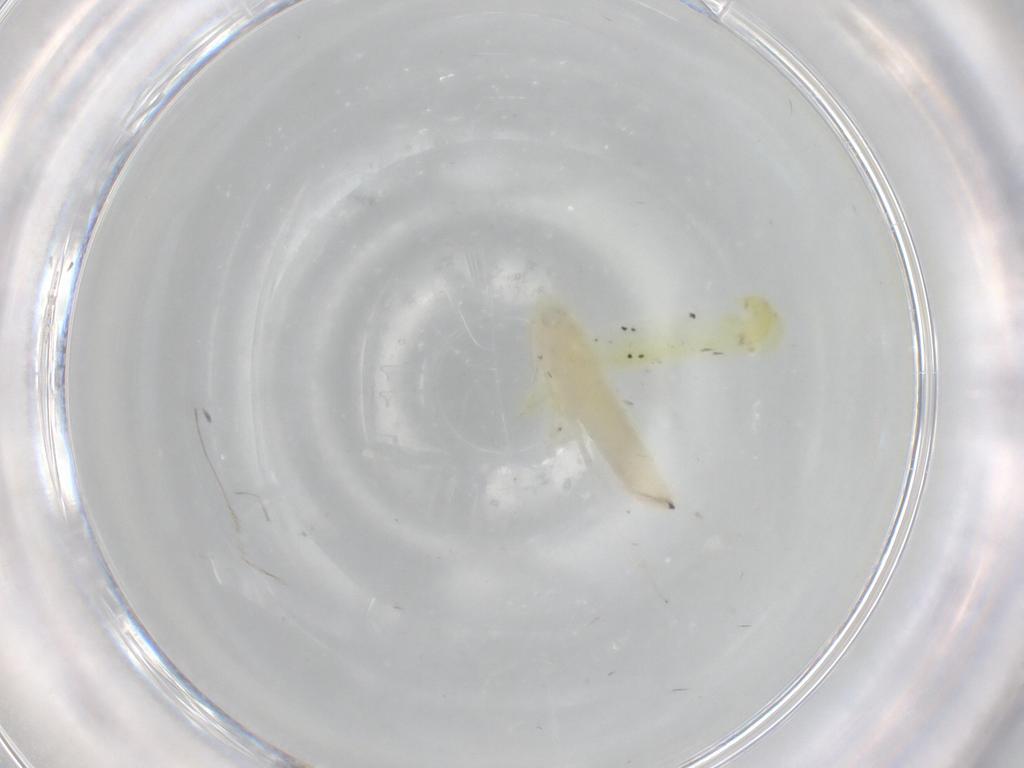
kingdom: Animalia
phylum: Arthropoda
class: Insecta
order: Hemiptera
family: Cicadellidae
